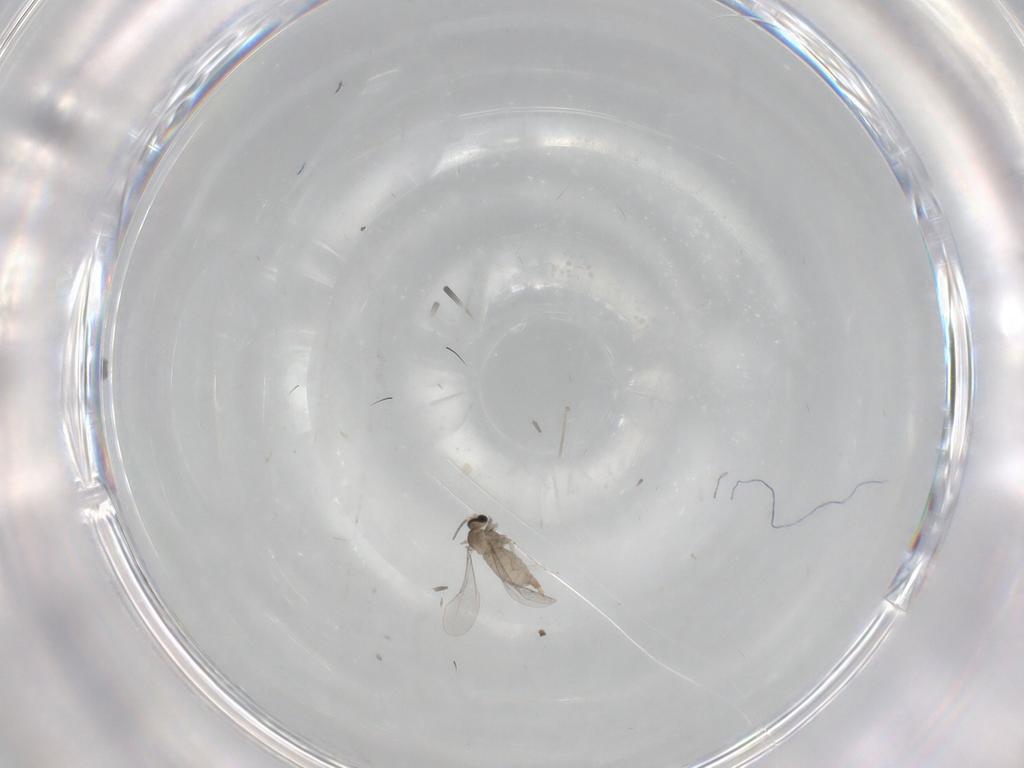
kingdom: Animalia
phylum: Arthropoda
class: Insecta
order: Diptera
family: Cecidomyiidae
